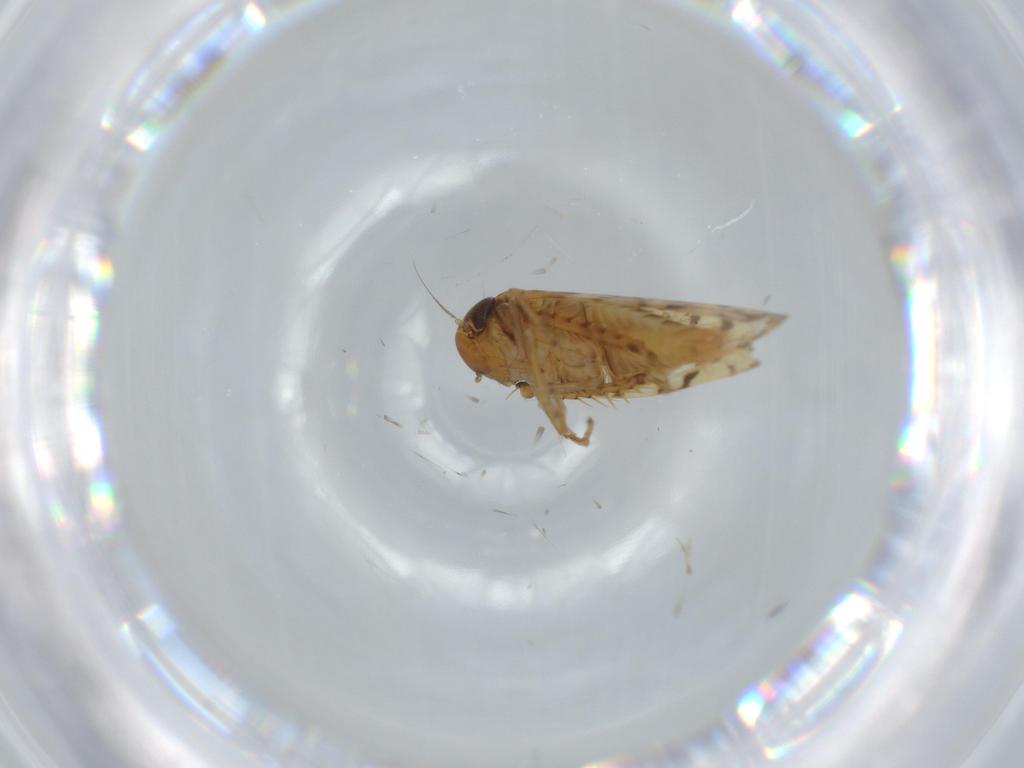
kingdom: Animalia
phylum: Arthropoda
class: Insecta
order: Hemiptera
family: Cicadellidae
